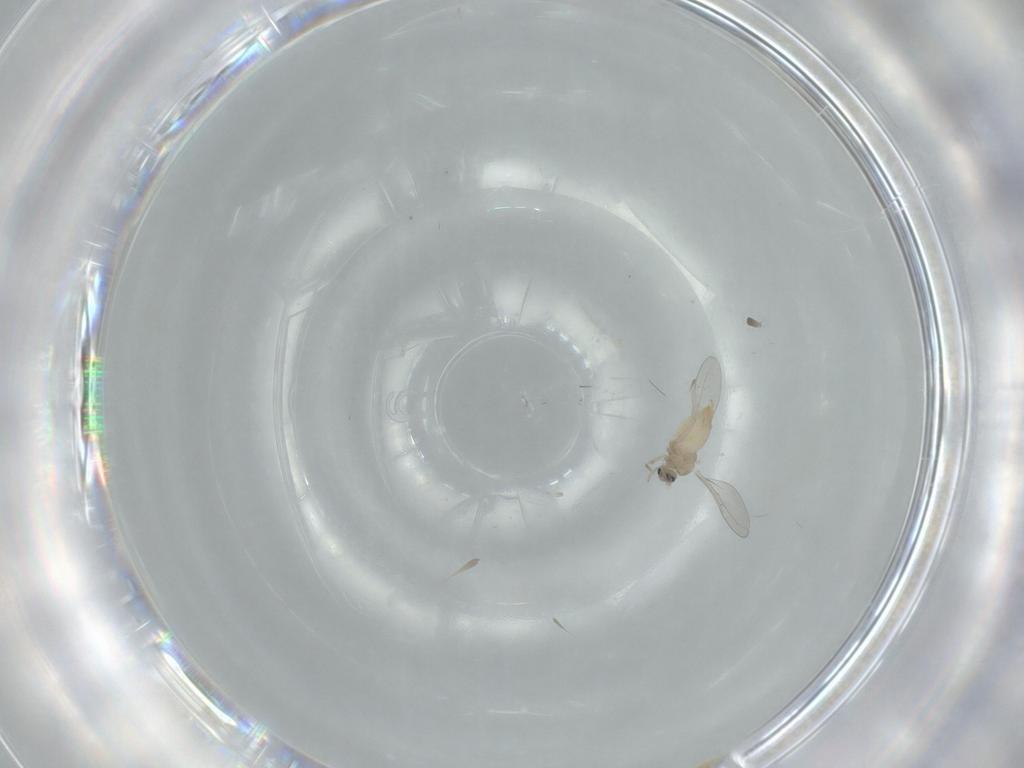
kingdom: Animalia
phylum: Arthropoda
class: Insecta
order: Diptera
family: Cecidomyiidae
